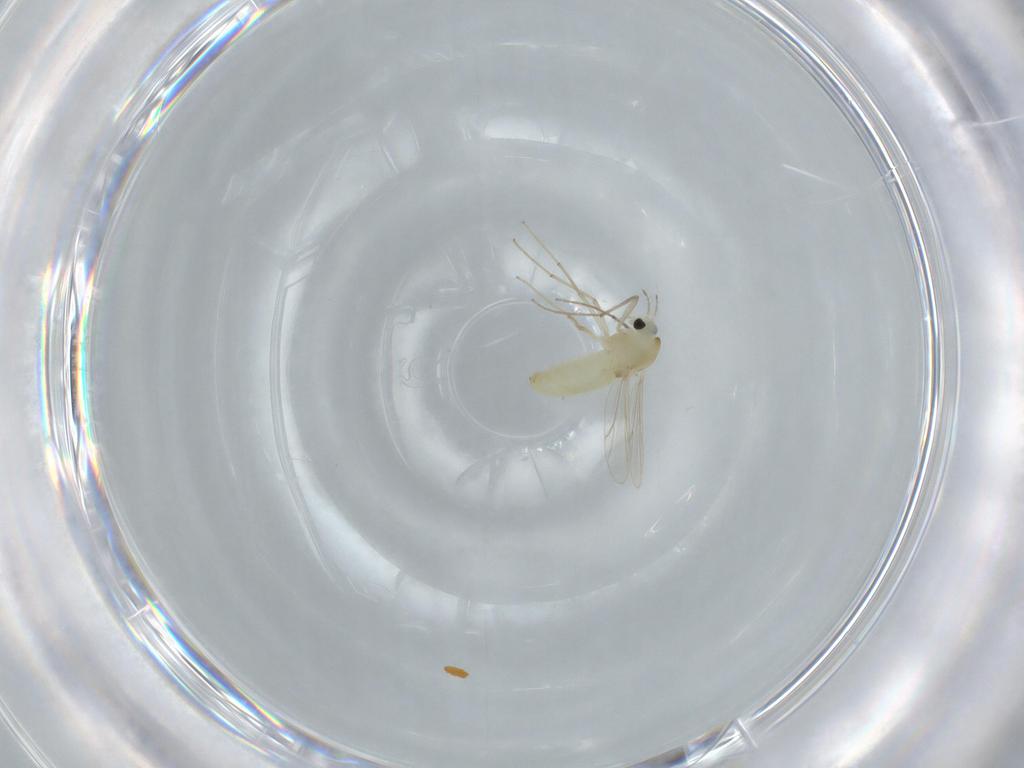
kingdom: Animalia
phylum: Arthropoda
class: Insecta
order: Diptera
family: Chironomidae
